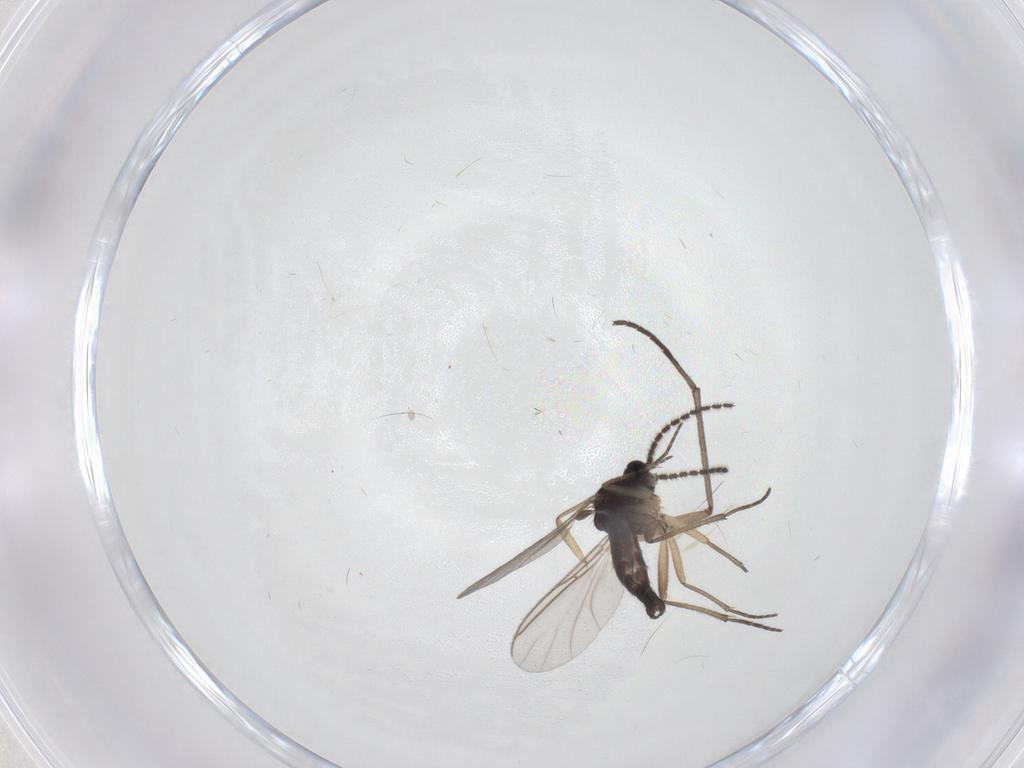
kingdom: Animalia
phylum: Arthropoda
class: Insecta
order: Diptera
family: Sciaridae
